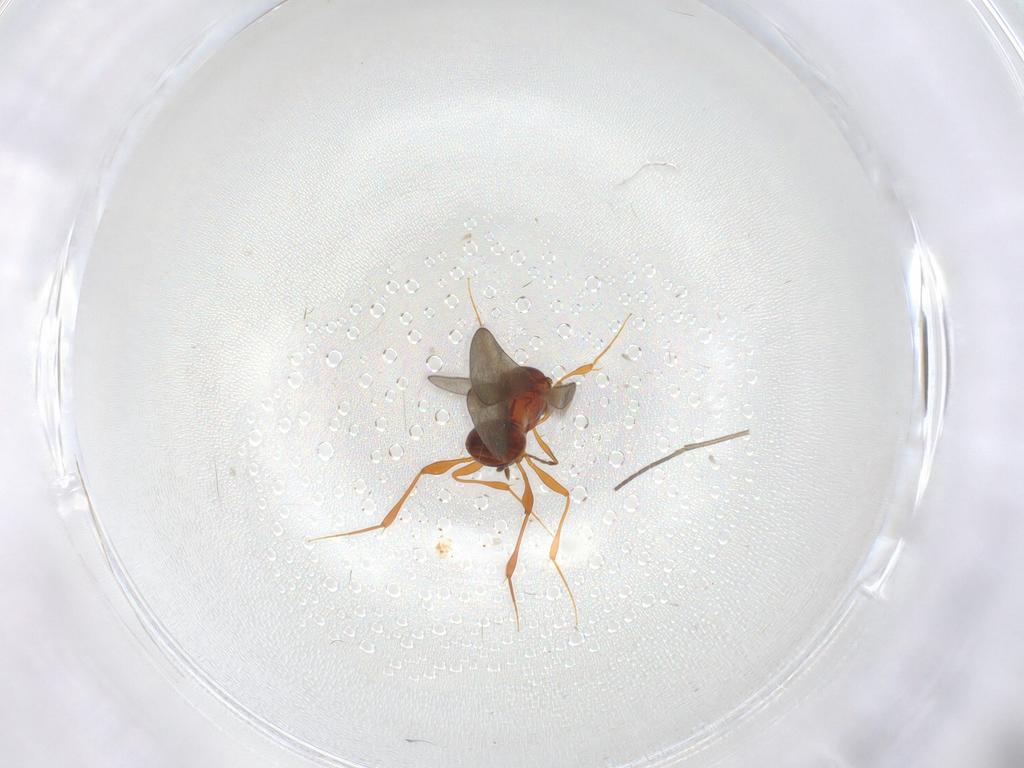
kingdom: Animalia
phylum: Arthropoda
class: Insecta
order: Hymenoptera
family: Platygastridae
